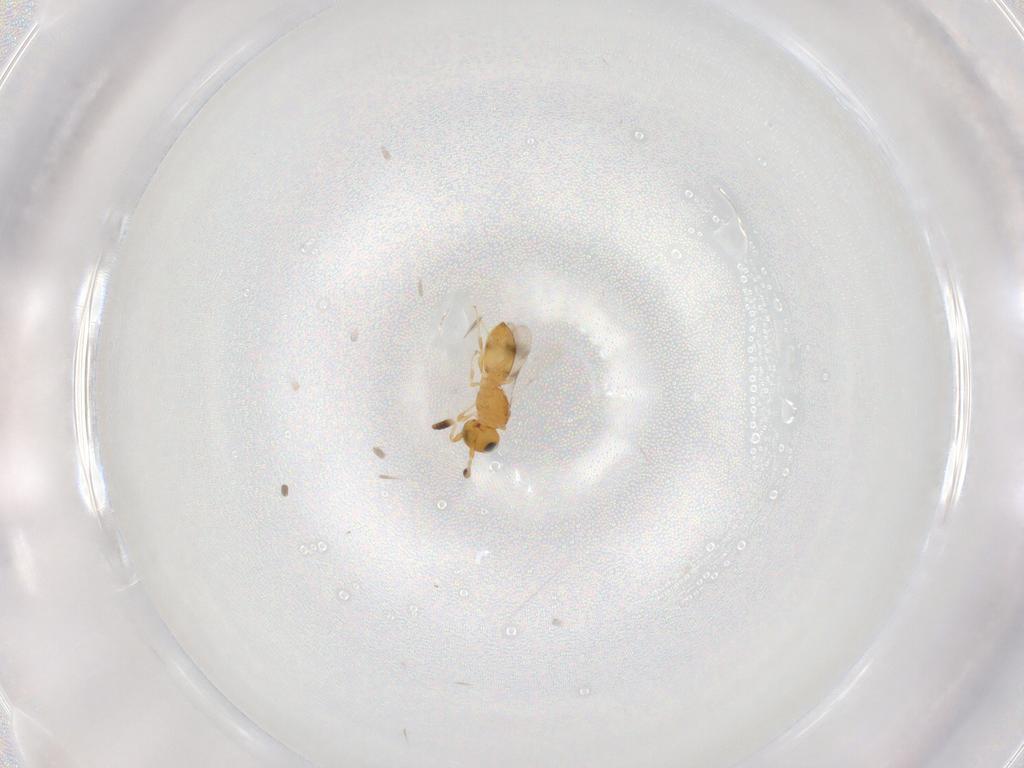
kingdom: Animalia
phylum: Arthropoda
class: Insecta
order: Hymenoptera
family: Scelionidae
